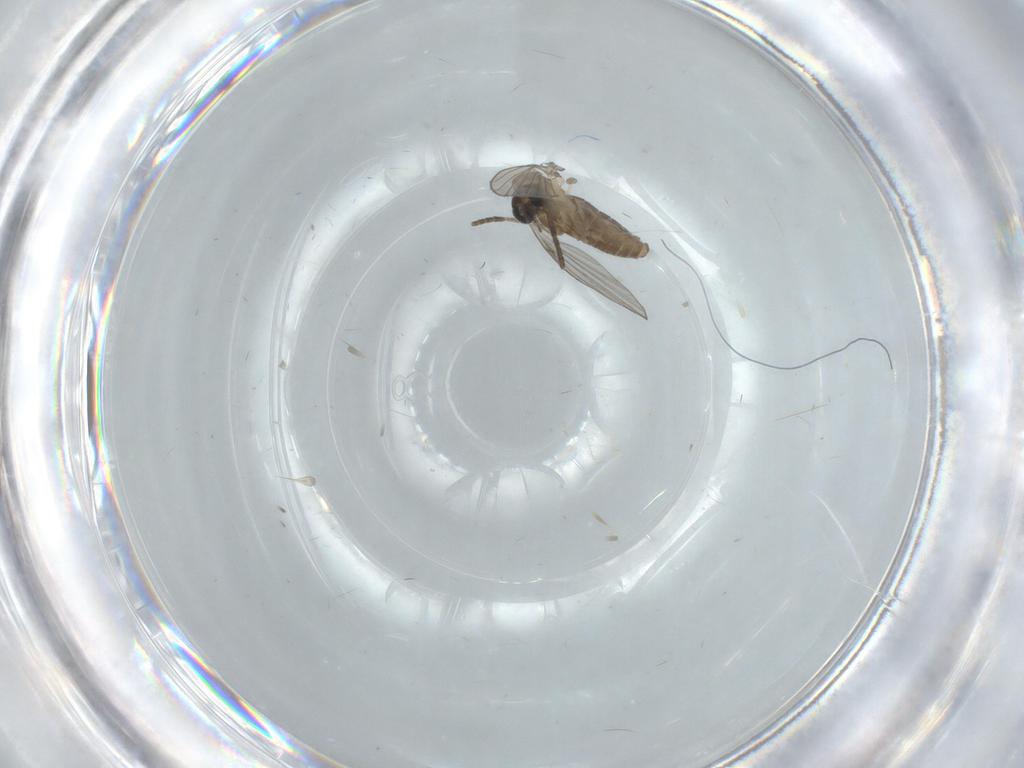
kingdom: Animalia
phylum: Arthropoda
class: Insecta
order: Diptera
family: Psychodidae
